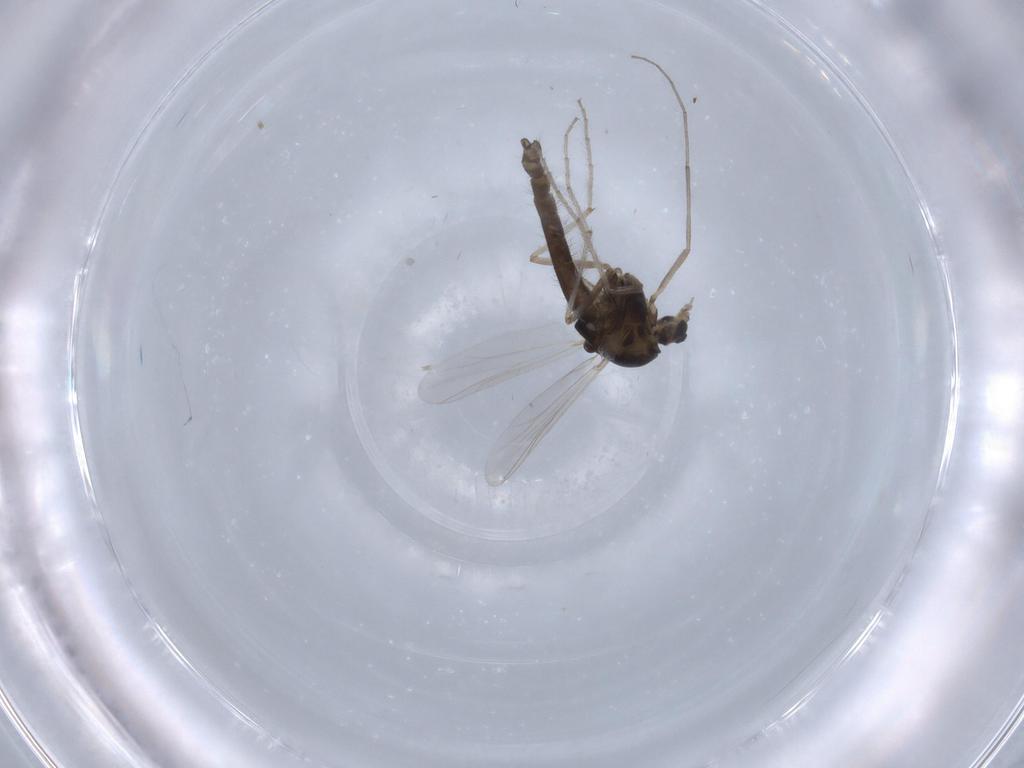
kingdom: Animalia
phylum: Arthropoda
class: Insecta
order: Diptera
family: Chironomidae
